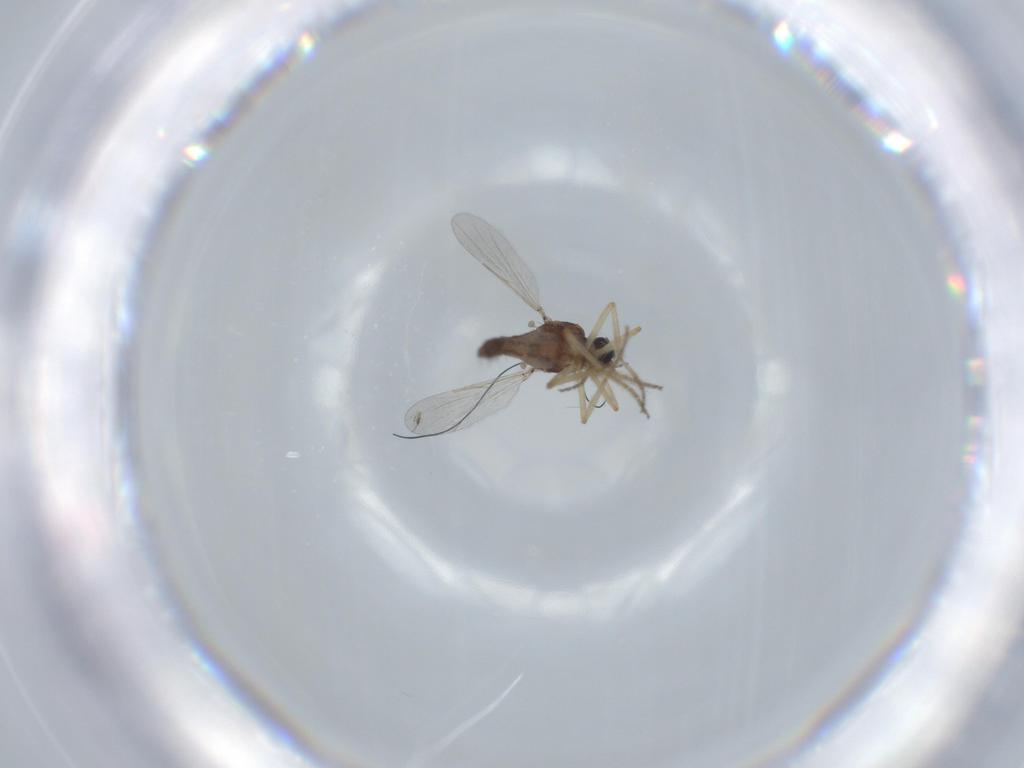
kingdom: Animalia
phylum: Arthropoda
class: Insecta
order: Diptera
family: Ceratopogonidae
